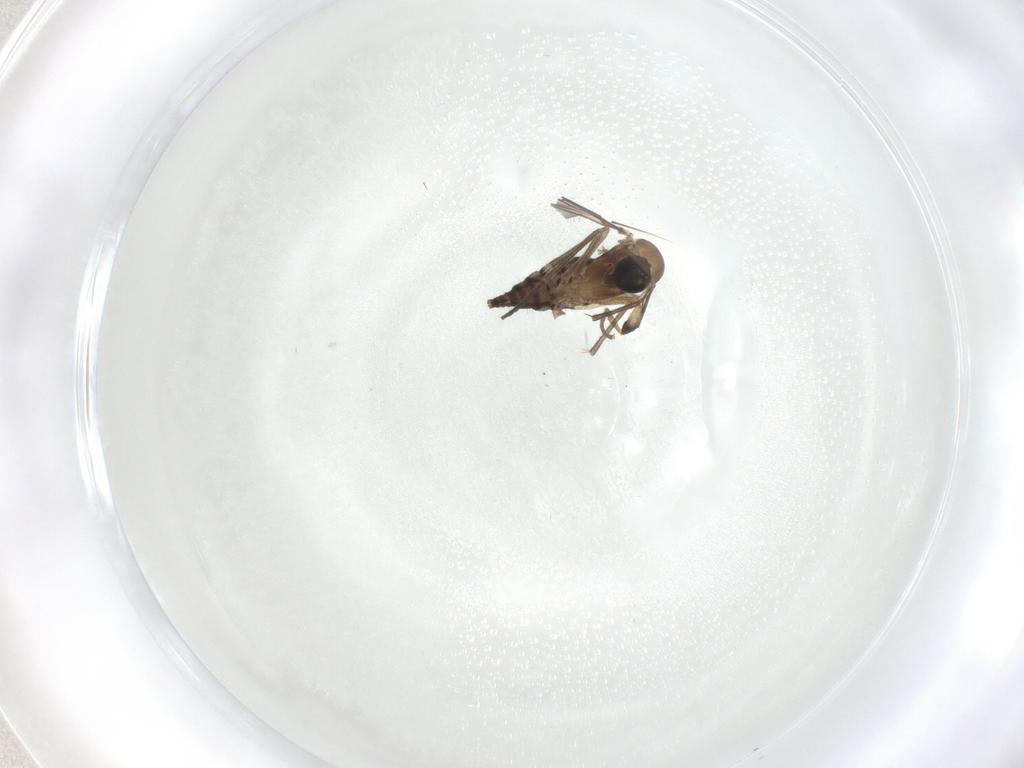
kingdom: Animalia
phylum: Arthropoda
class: Insecta
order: Diptera
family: Sciaridae
